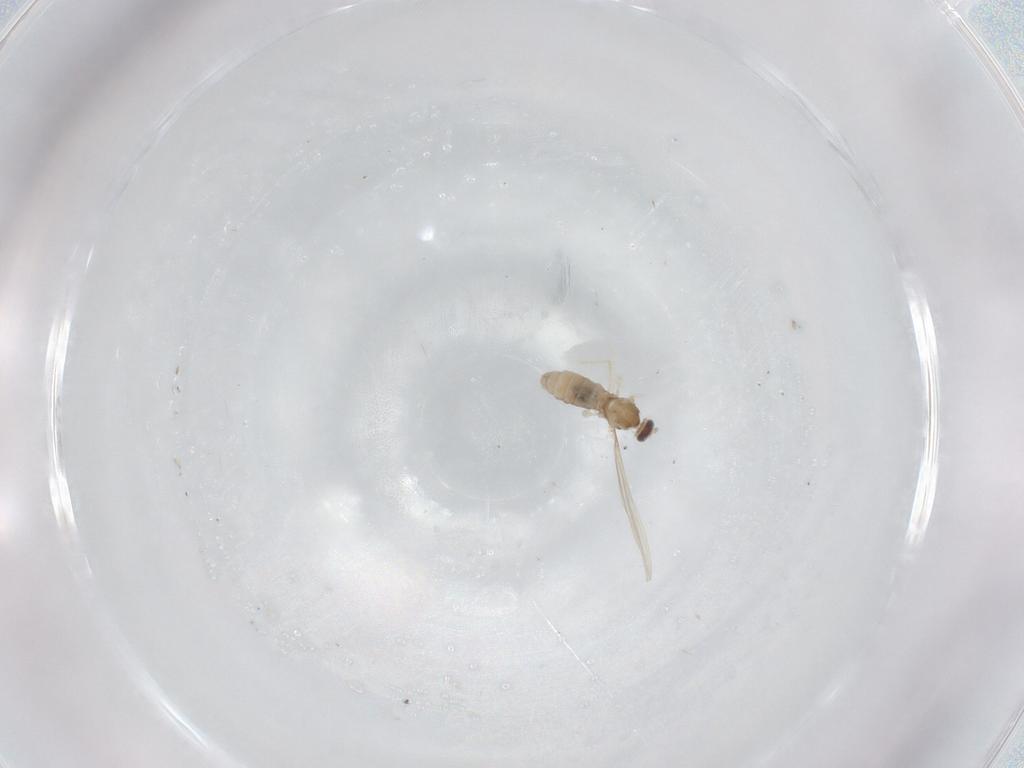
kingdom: Animalia
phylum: Arthropoda
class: Insecta
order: Diptera
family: Cecidomyiidae
